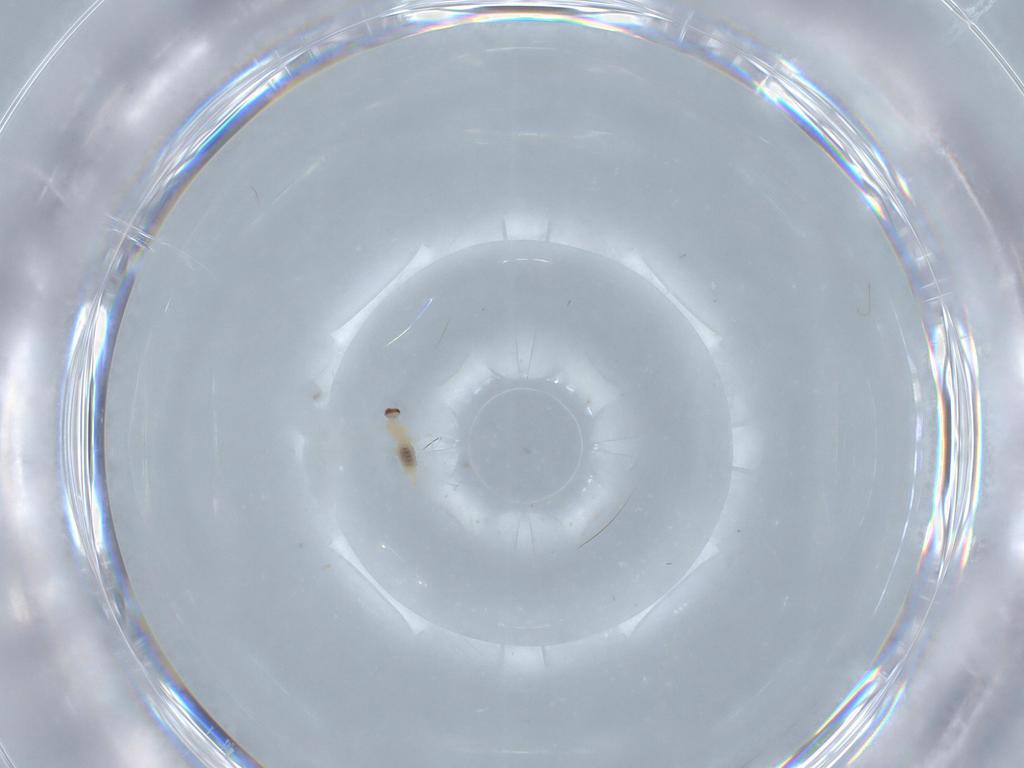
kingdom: Animalia
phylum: Arthropoda
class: Insecta
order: Diptera
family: Cecidomyiidae
